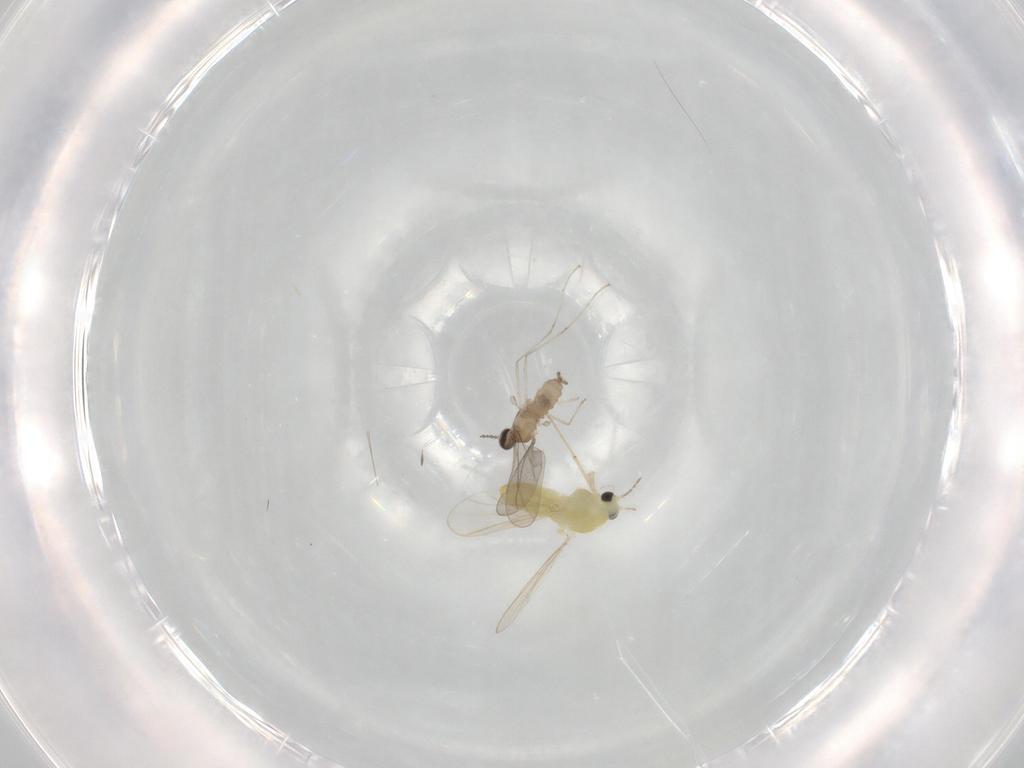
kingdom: Animalia
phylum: Arthropoda
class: Insecta
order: Diptera
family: Chironomidae
